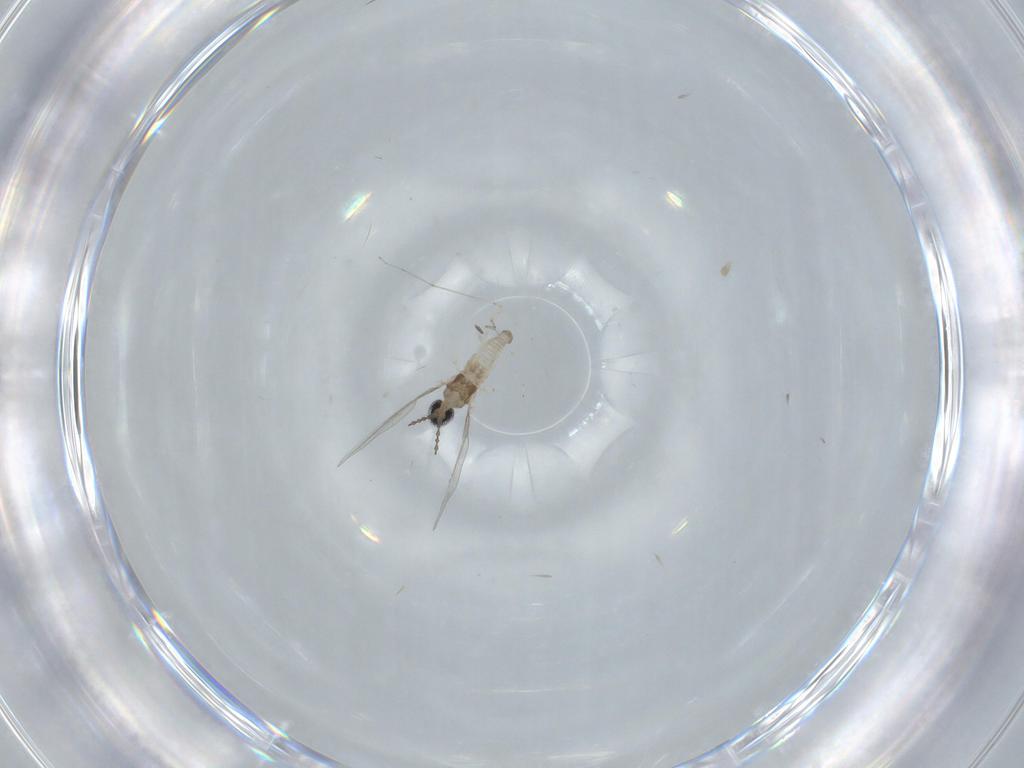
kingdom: Animalia
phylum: Arthropoda
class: Insecta
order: Diptera
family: Cecidomyiidae
